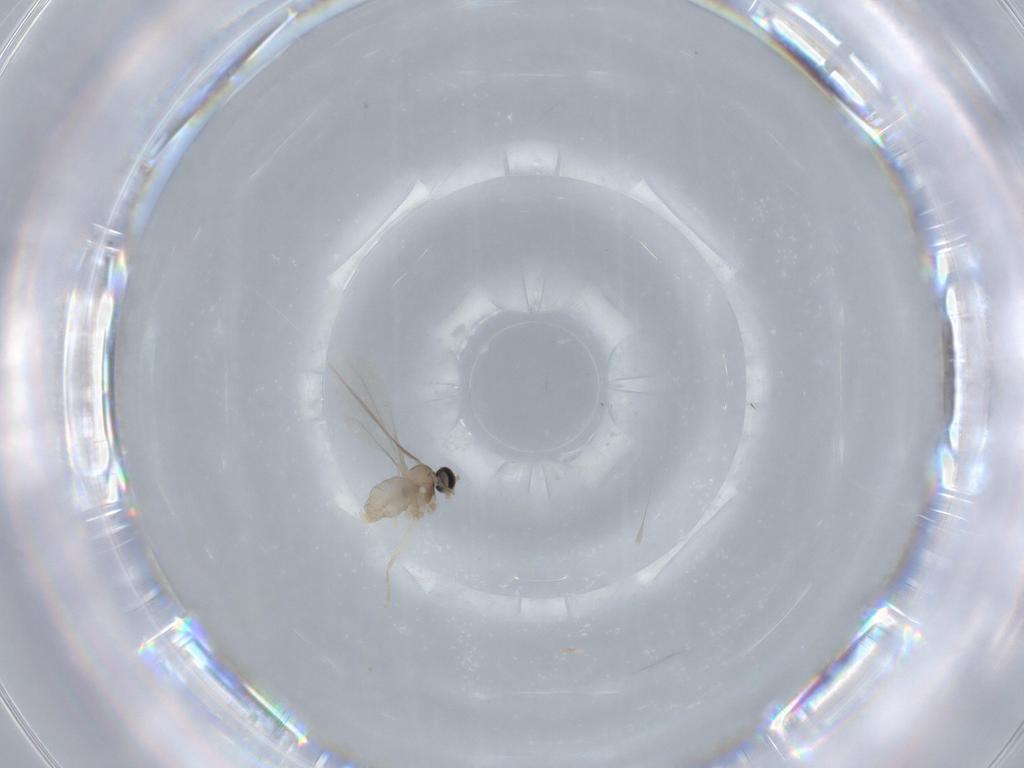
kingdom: Animalia
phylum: Arthropoda
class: Insecta
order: Diptera
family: Cecidomyiidae
